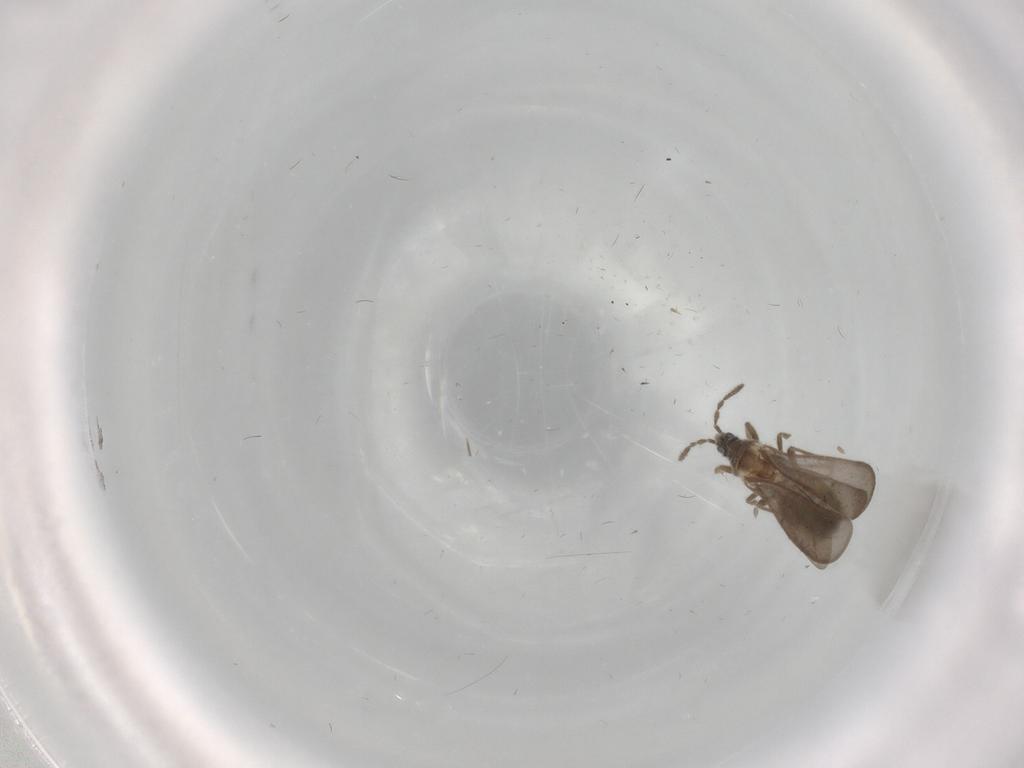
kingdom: Animalia
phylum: Arthropoda
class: Insecta
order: Hemiptera
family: Enicocephalidae
